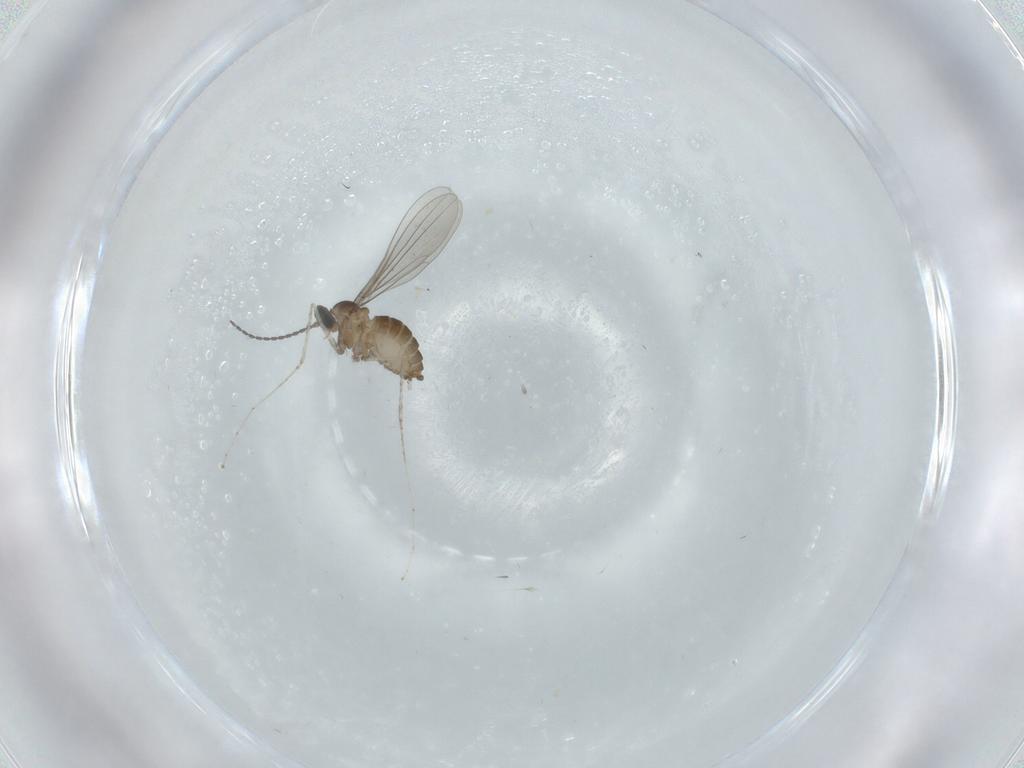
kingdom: Animalia
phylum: Arthropoda
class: Insecta
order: Diptera
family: Cecidomyiidae
